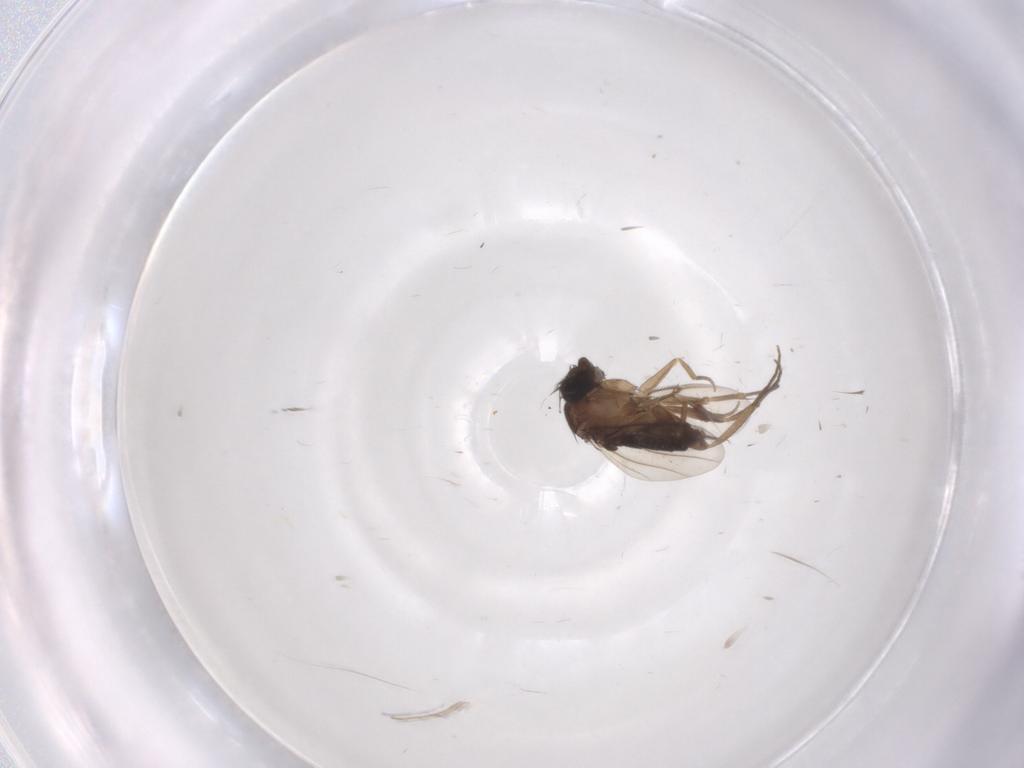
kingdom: Animalia
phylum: Arthropoda
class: Insecta
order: Diptera
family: Phoridae
